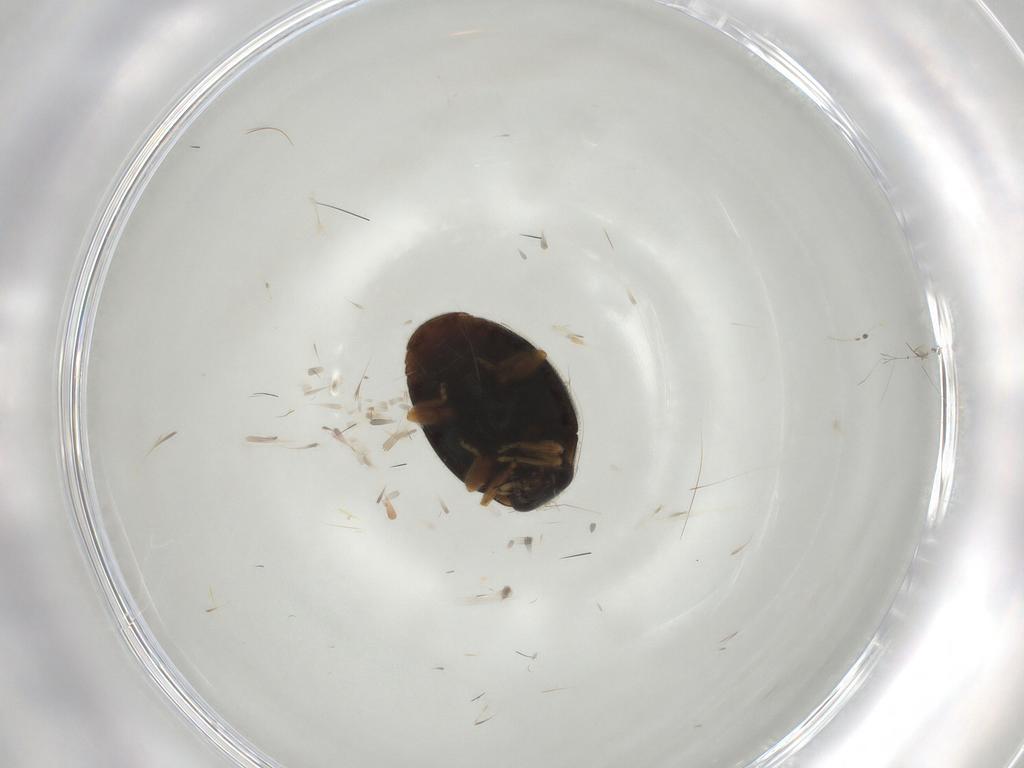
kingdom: Animalia
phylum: Arthropoda
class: Insecta
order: Coleoptera
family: Coccinellidae
